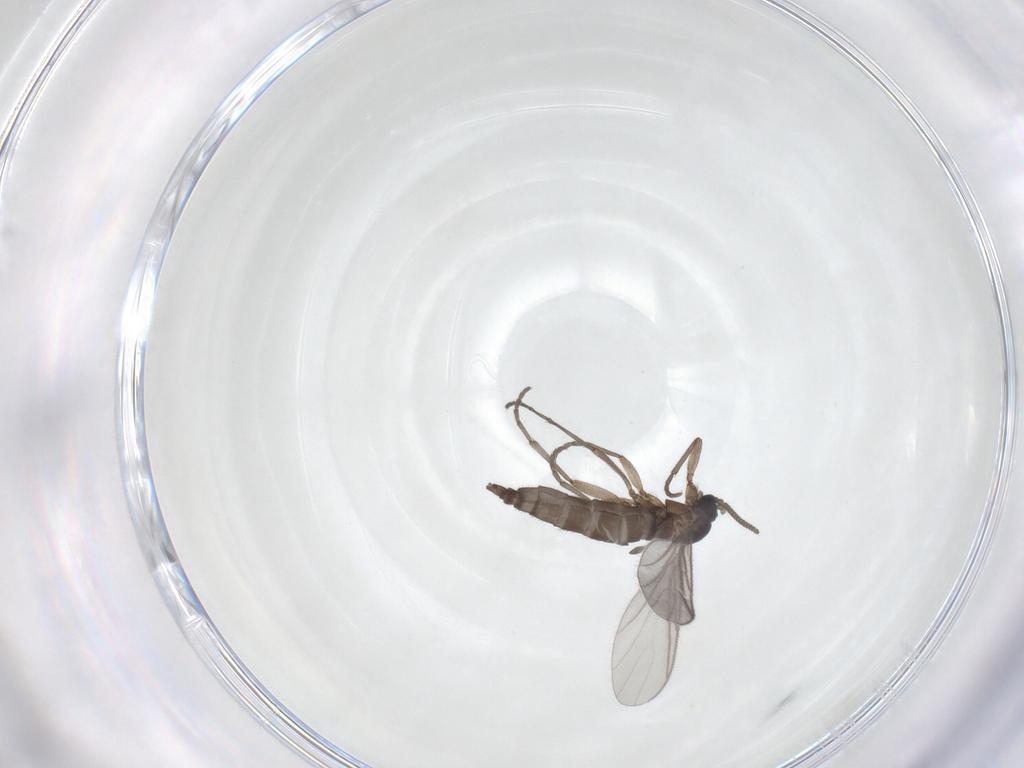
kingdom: Animalia
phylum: Arthropoda
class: Insecta
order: Diptera
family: Sciaridae
